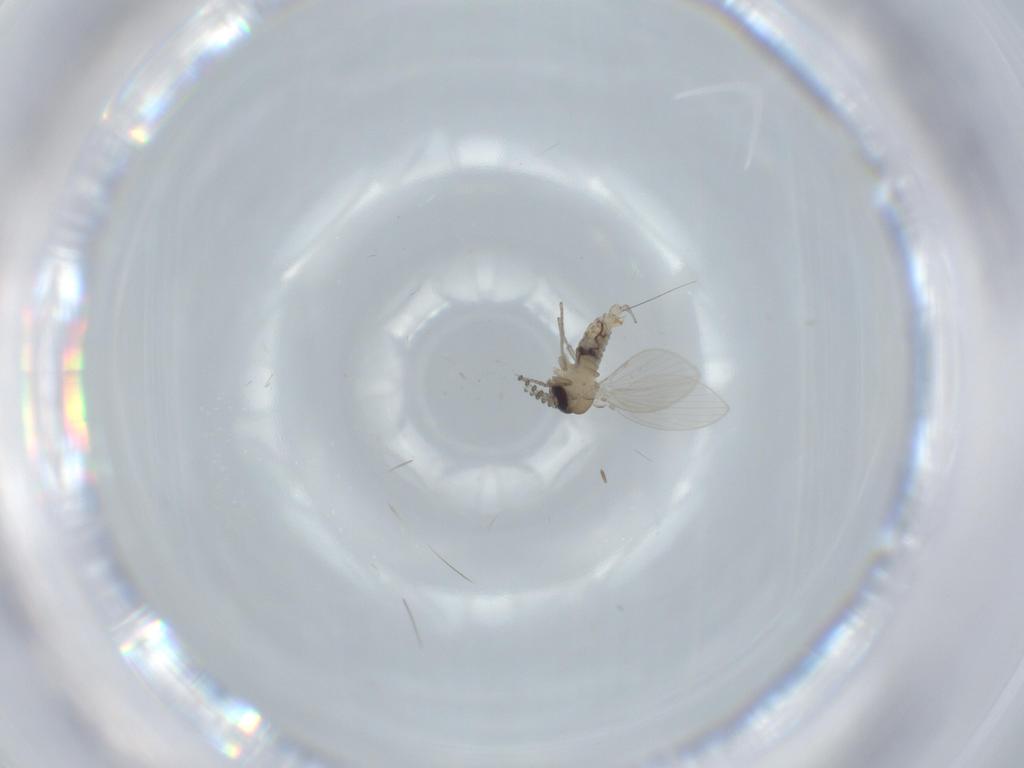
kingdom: Animalia
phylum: Arthropoda
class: Insecta
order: Diptera
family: Psychodidae
